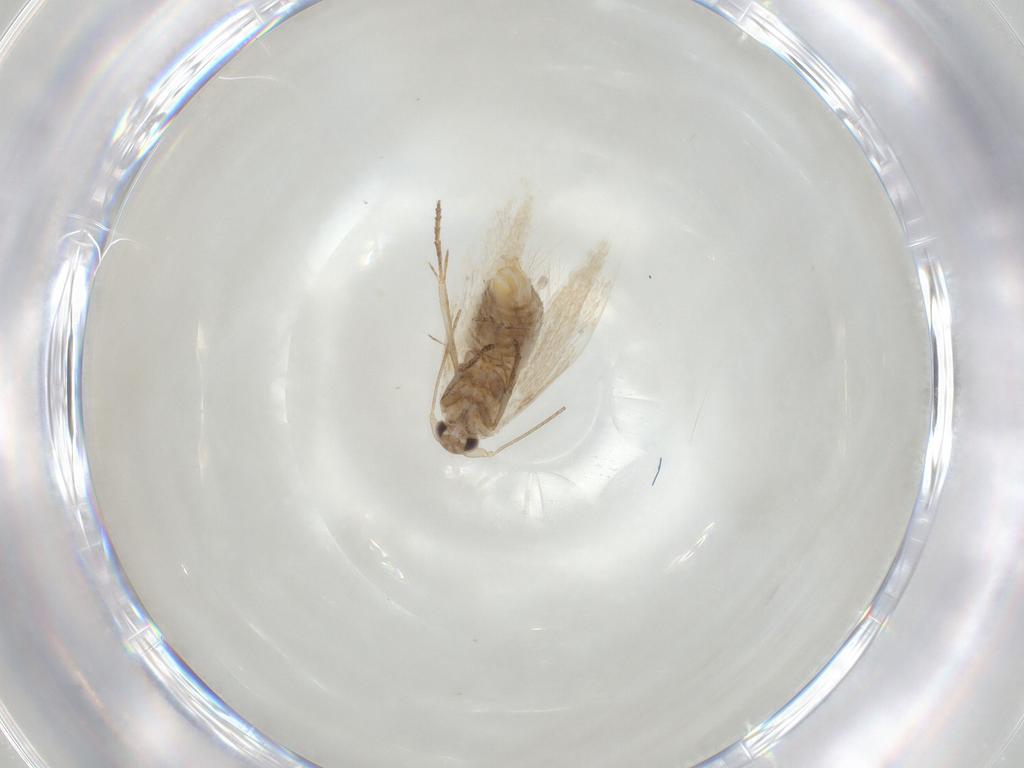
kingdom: Animalia
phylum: Arthropoda
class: Insecta
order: Lepidoptera
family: Bucculatricidae
